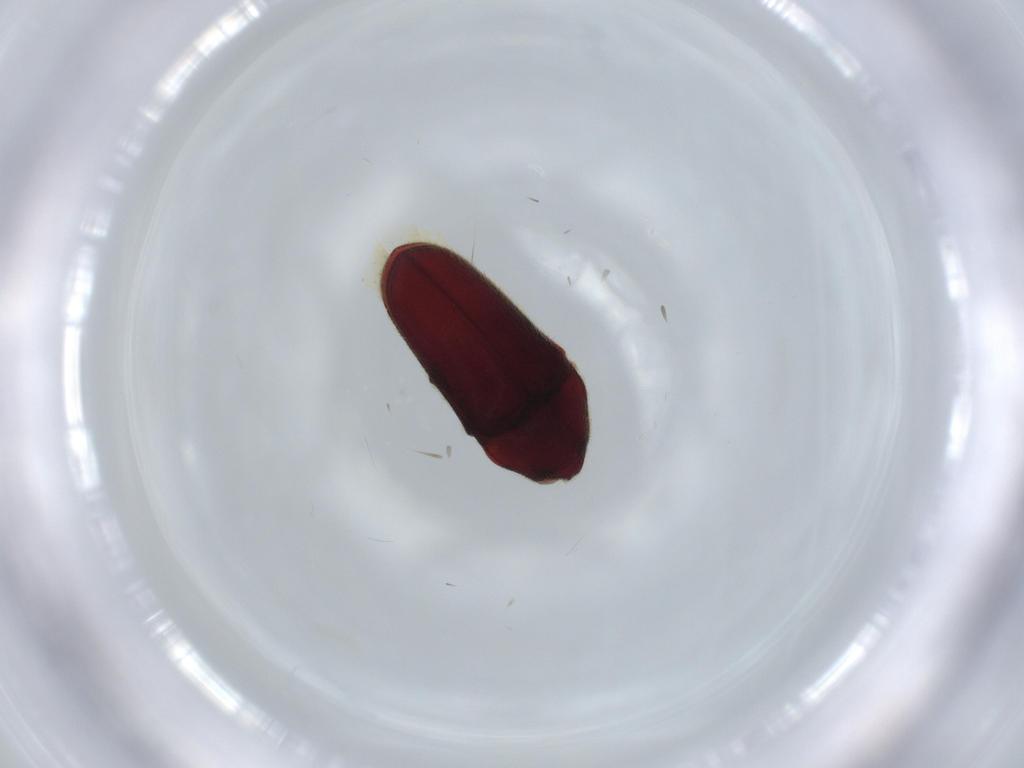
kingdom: Animalia
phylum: Arthropoda
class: Insecta
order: Coleoptera
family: Throscidae
